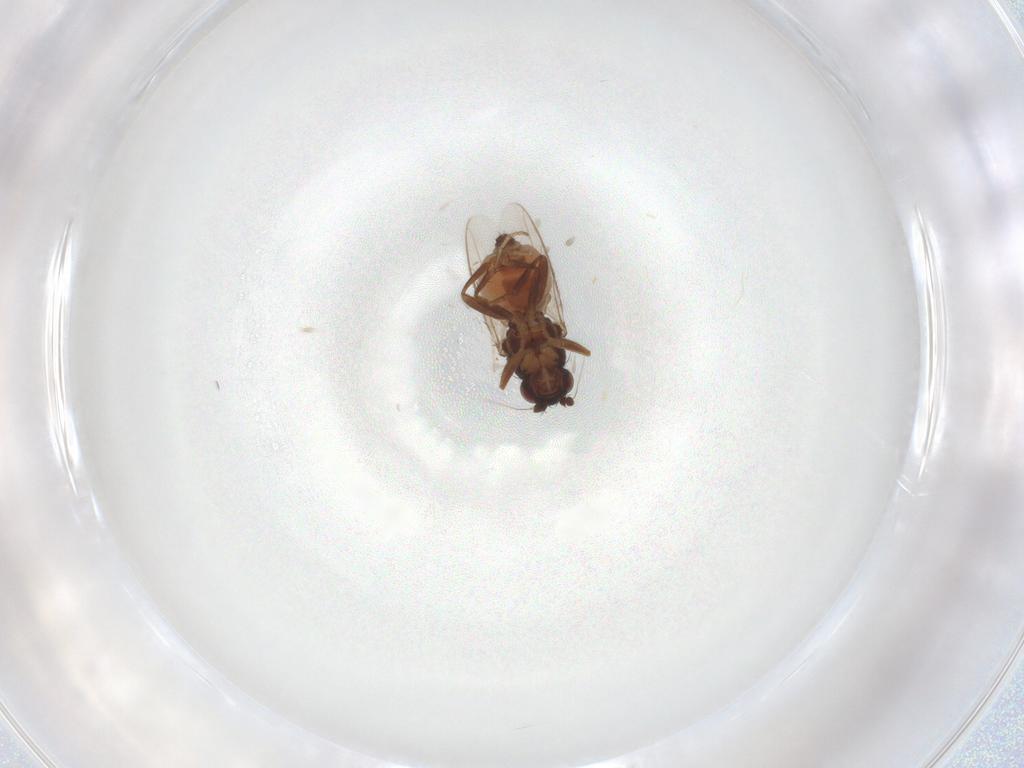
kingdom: Animalia
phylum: Arthropoda
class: Insecta
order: Diptera
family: Sphaeroceridae
